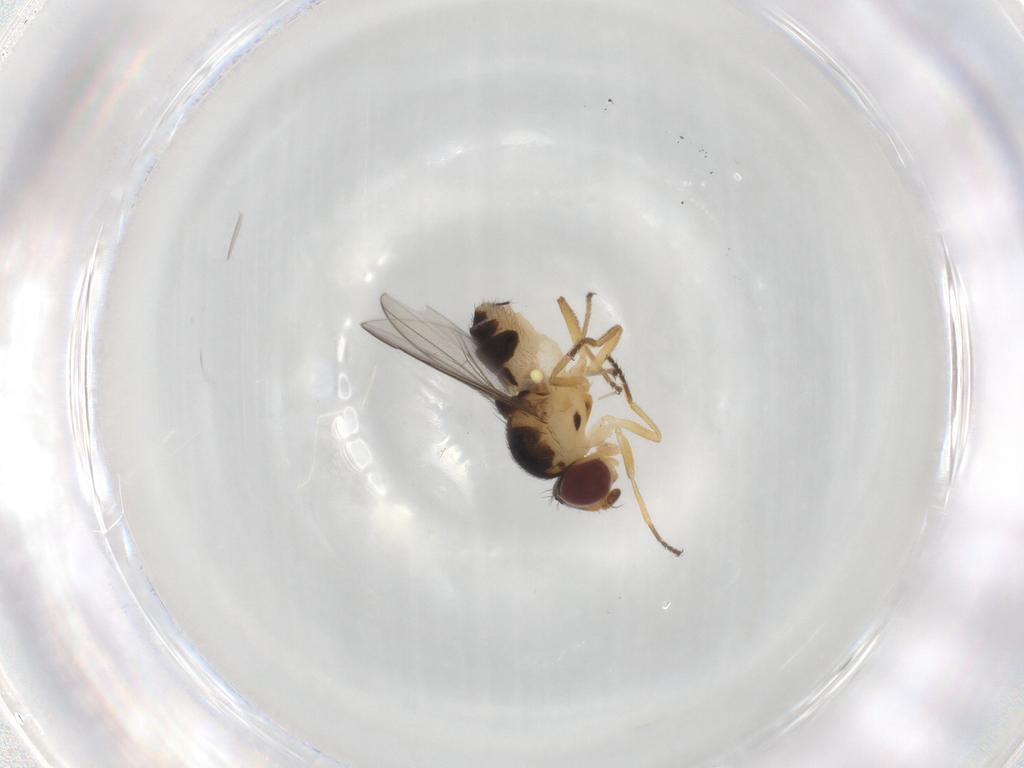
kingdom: Animalia
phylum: Arthropoda
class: Insecta
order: Diptera
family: Chloropidae
